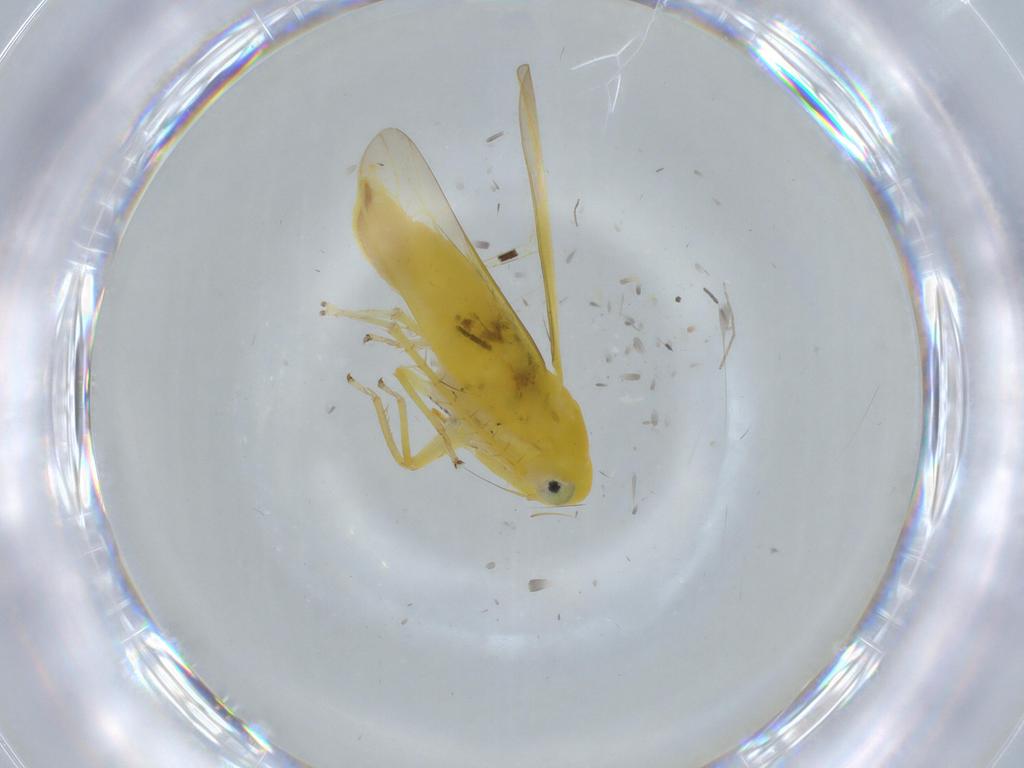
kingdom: Animalia
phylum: Arthropoda
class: Insecta
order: Hemiptera
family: Cicadellidae
